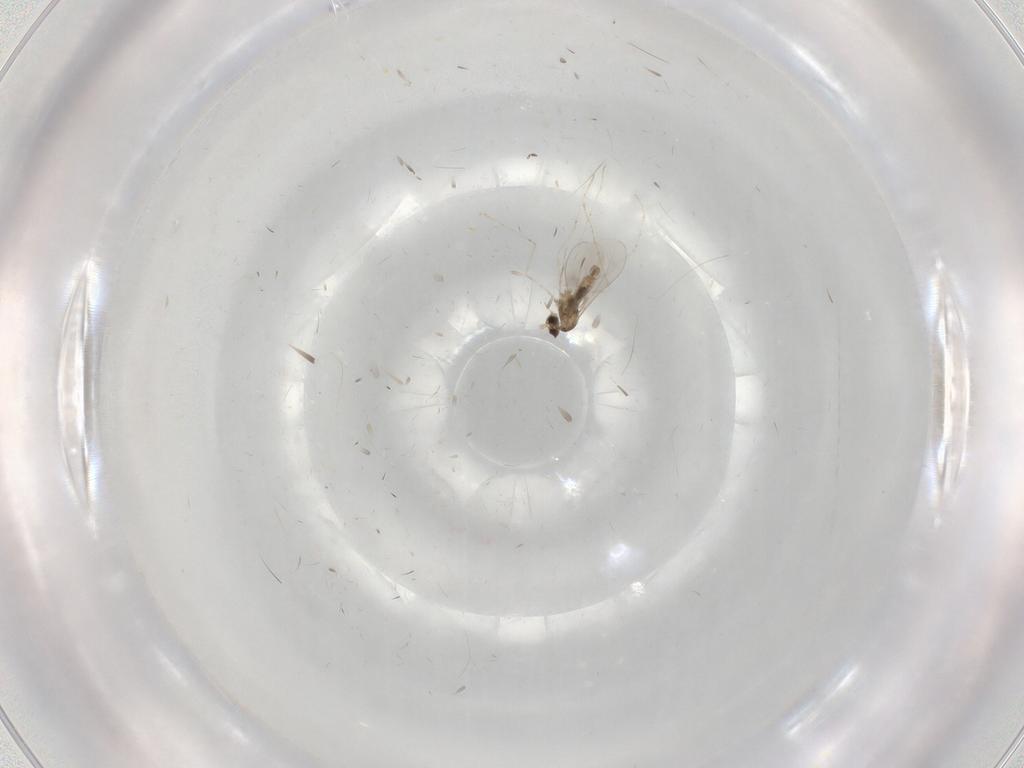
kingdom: Animalia
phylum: Arthropoda
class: Insecta
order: Diptera
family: Cecidomyiidae
